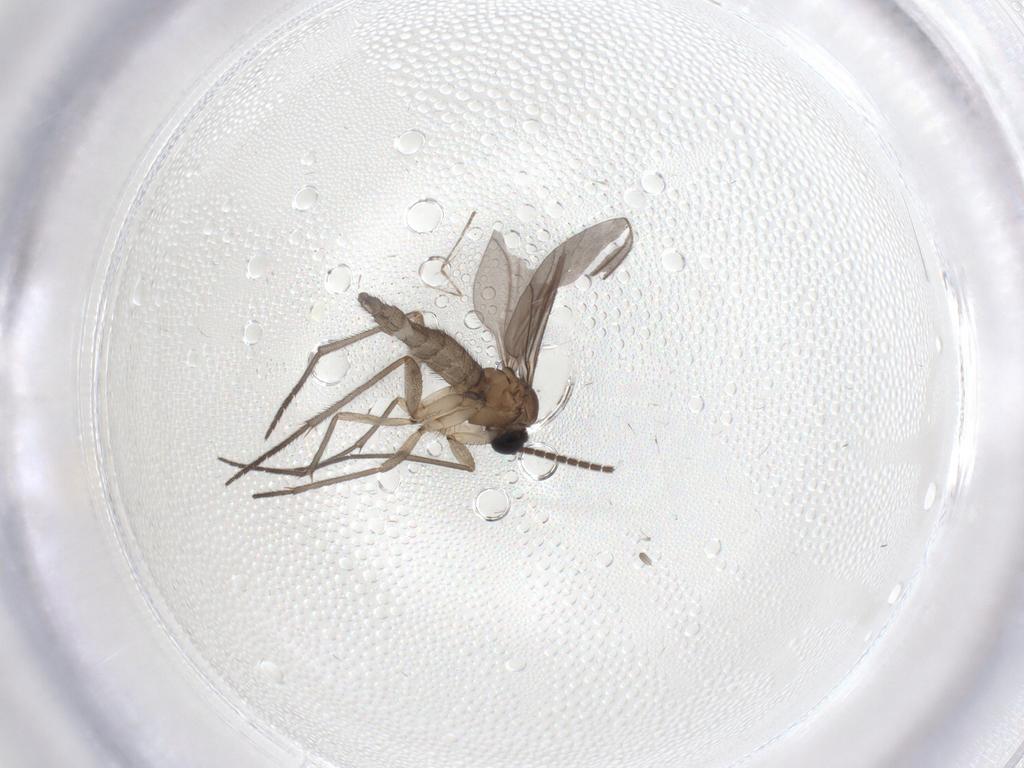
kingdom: Animalia
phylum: Arthropoda
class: Insecta
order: Diptera
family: Sciaridae
